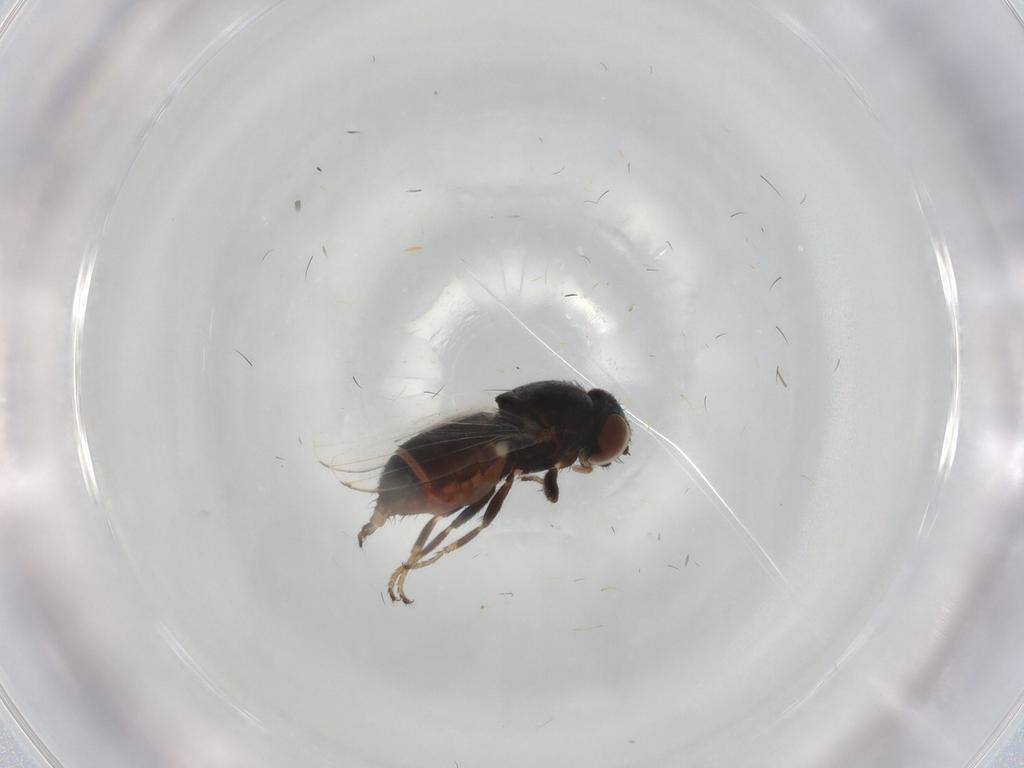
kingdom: Animalia
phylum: Arthropoda
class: Insecta
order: Diptera
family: Milichiidae
